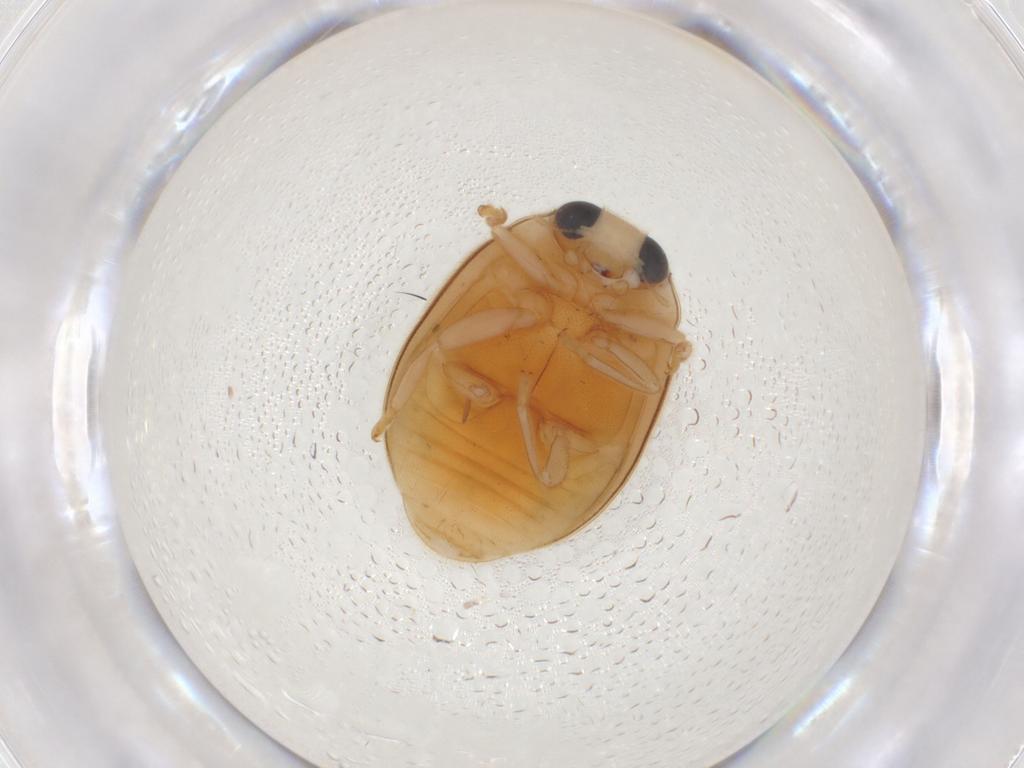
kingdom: Animalia
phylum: Arthropoda
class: Insecta
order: Coleoptera
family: Coccinellidae
